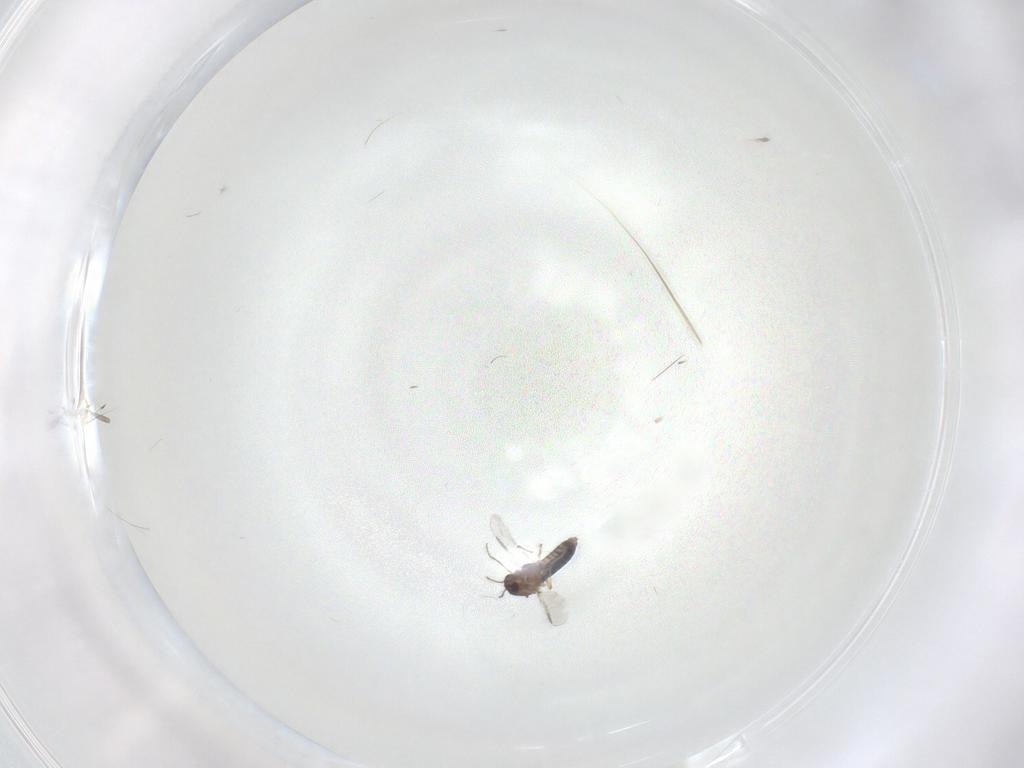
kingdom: Animalia
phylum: Arthropoda
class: Insecta
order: Diptera
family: Chironomidae
